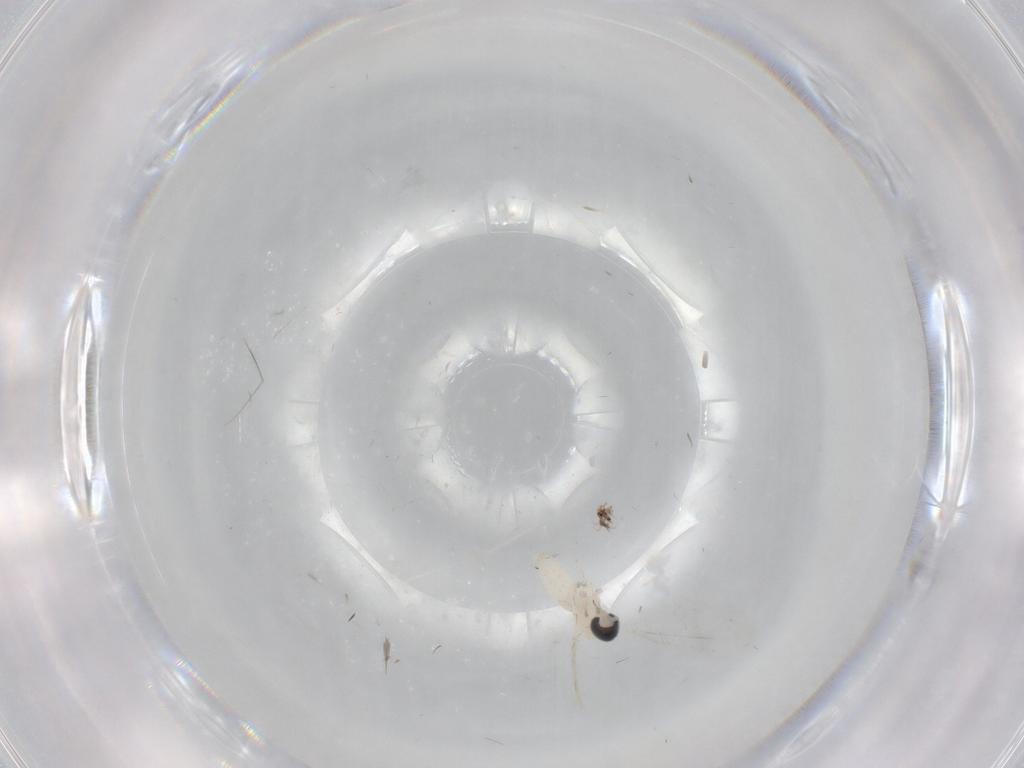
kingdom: Animalia
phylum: Arthropoda
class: Insecta
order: Diptera
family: Cecidomyiidae
